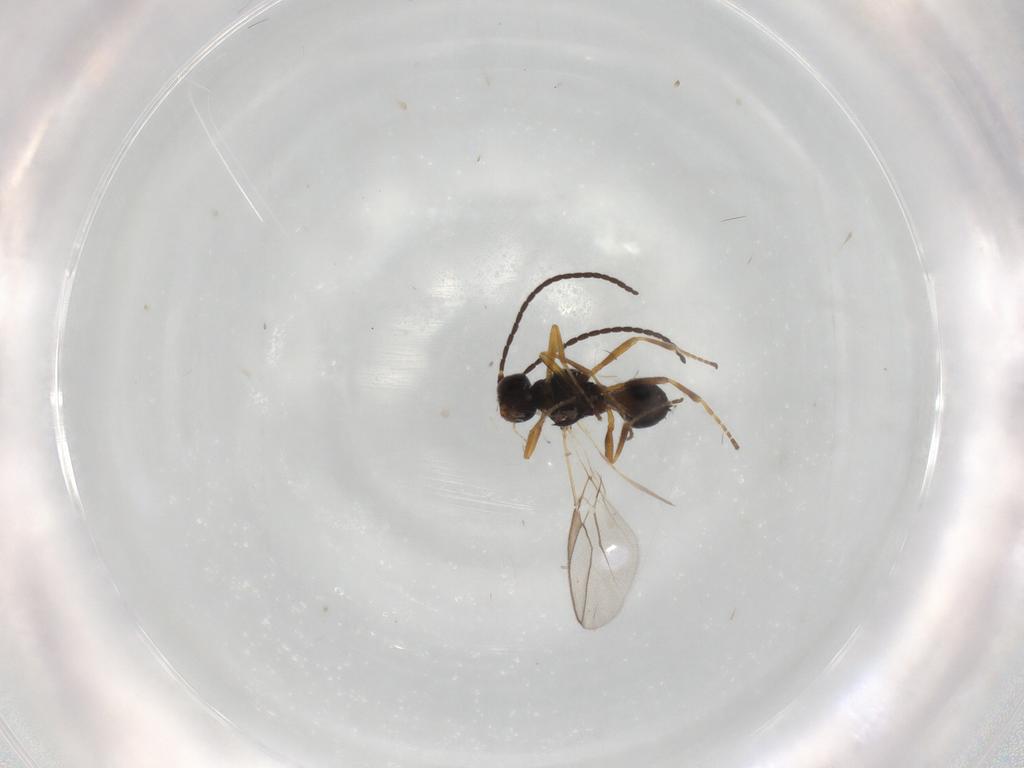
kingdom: Animalia
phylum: Arthropoda
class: Insecta
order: Hymenoptera
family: Braconidae
